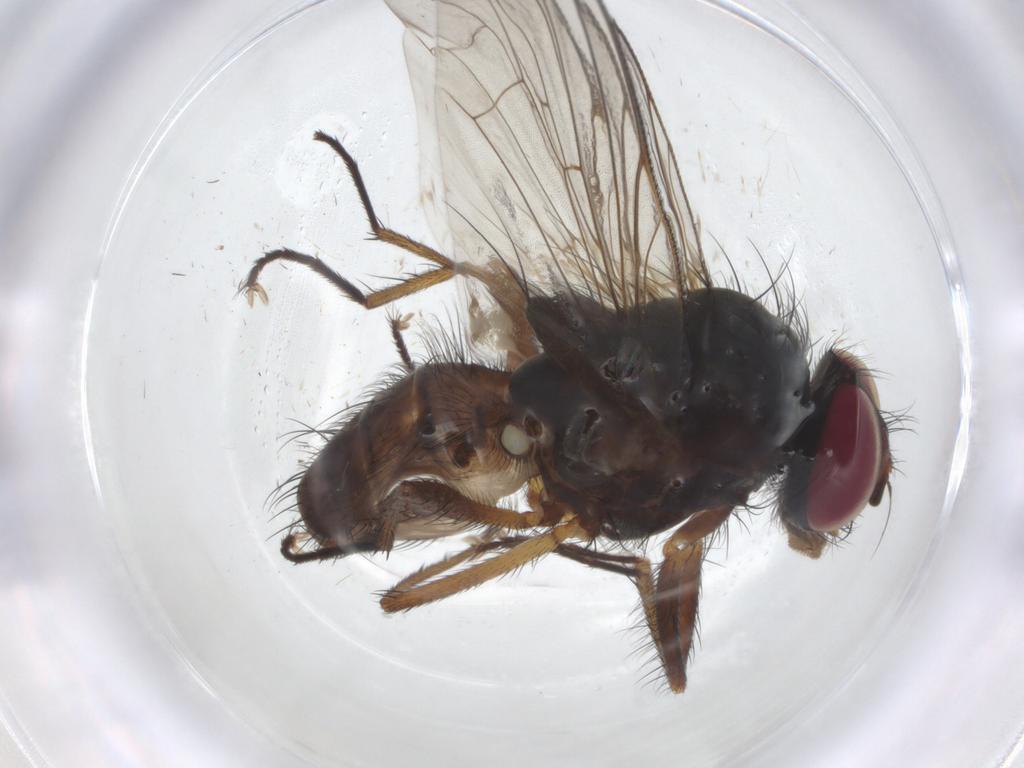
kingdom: Animalia
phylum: Arthropoda
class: Insecta
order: Diptera
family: Anthomyiidae
